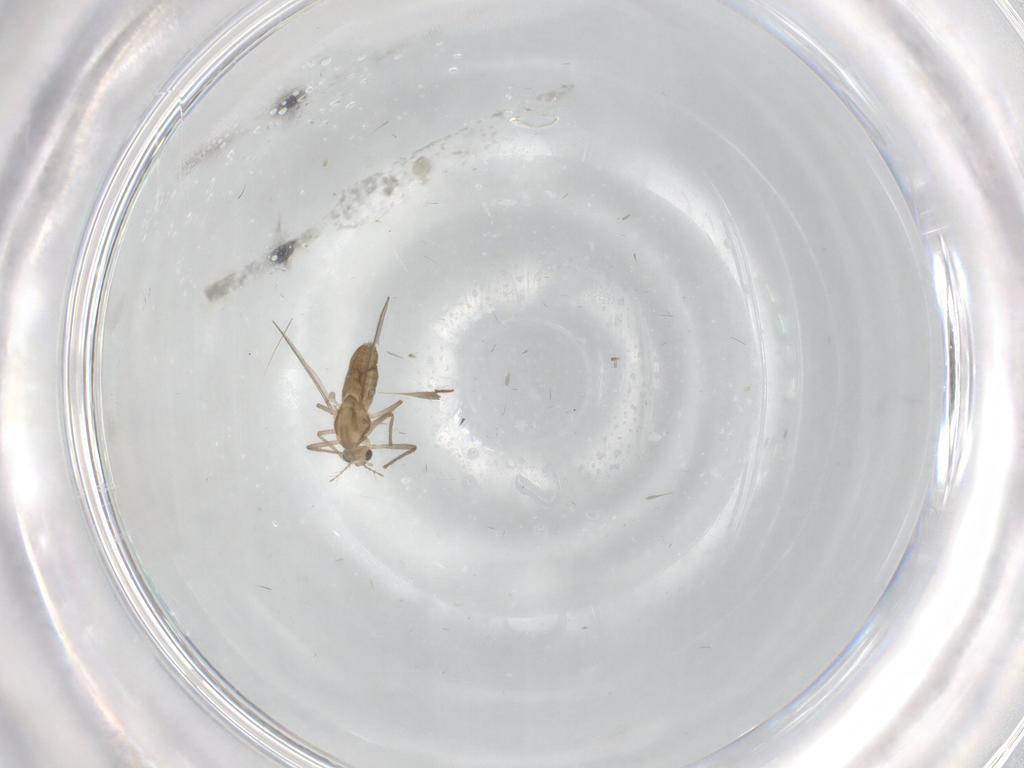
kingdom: Animalia
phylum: Arthropoda
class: Insecta
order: Diptera
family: Chironomidae
